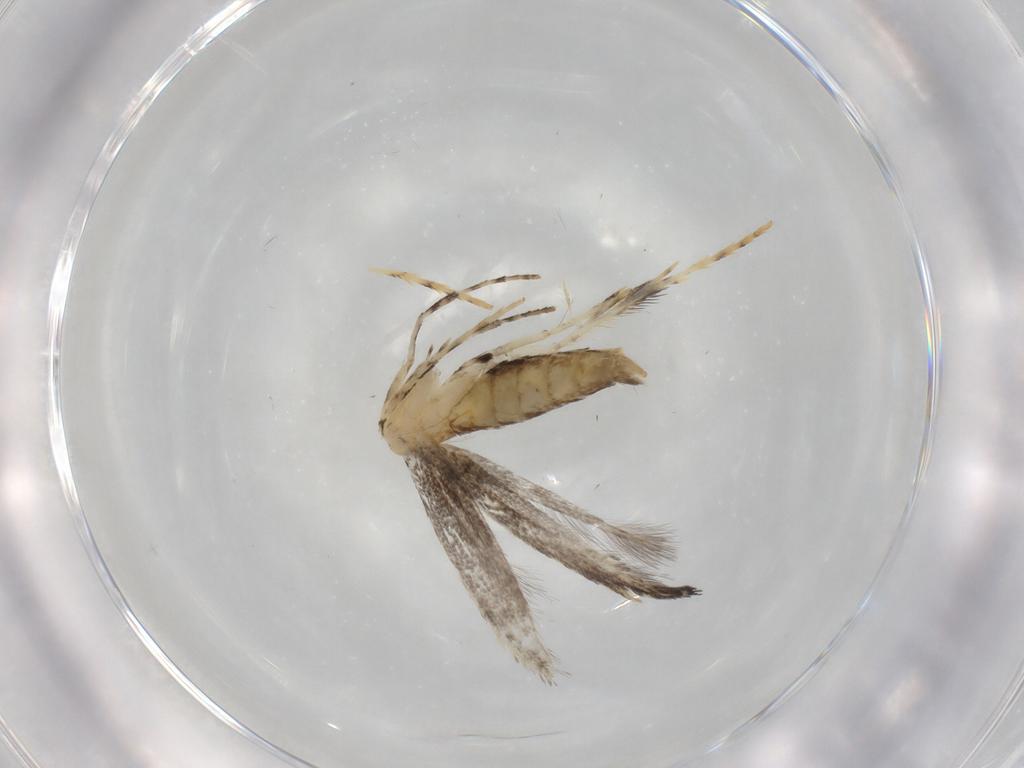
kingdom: Animalia
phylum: Arthropoda
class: Insecta
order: Lepidoptera
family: Gracillariidae
